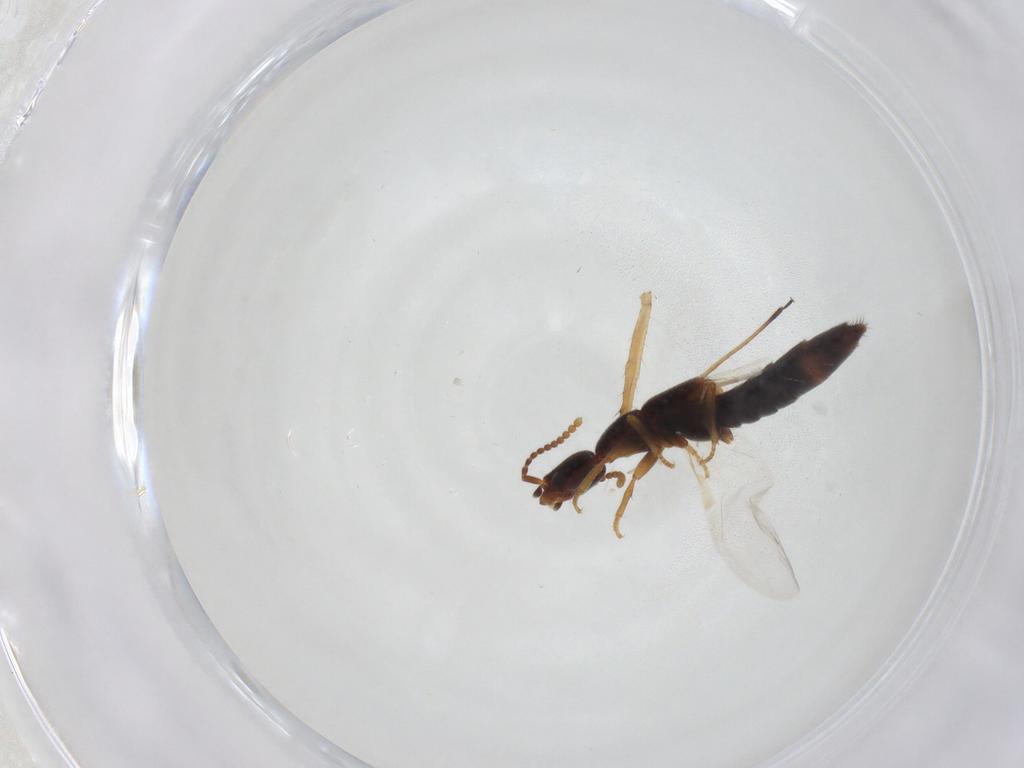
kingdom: Animalia
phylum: Arthropoda
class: Insecta
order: Coleoptera
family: Staphylinidae
